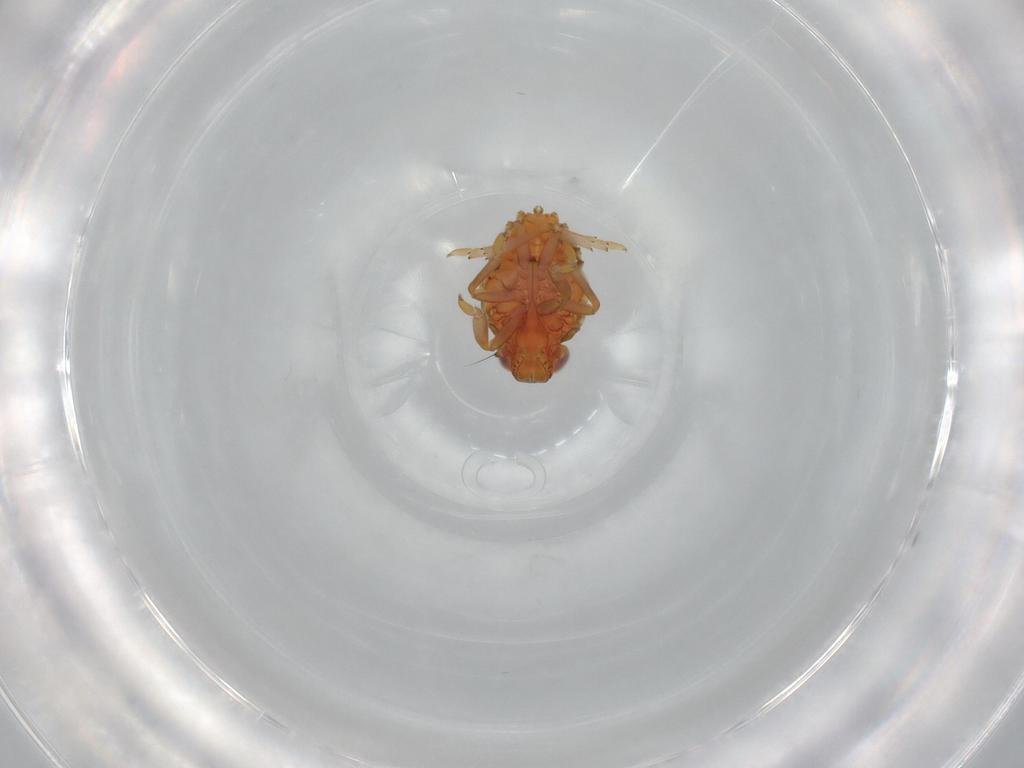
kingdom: Animalia
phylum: Arthropoda
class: Insecta
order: Hemiptera
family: Issidae
